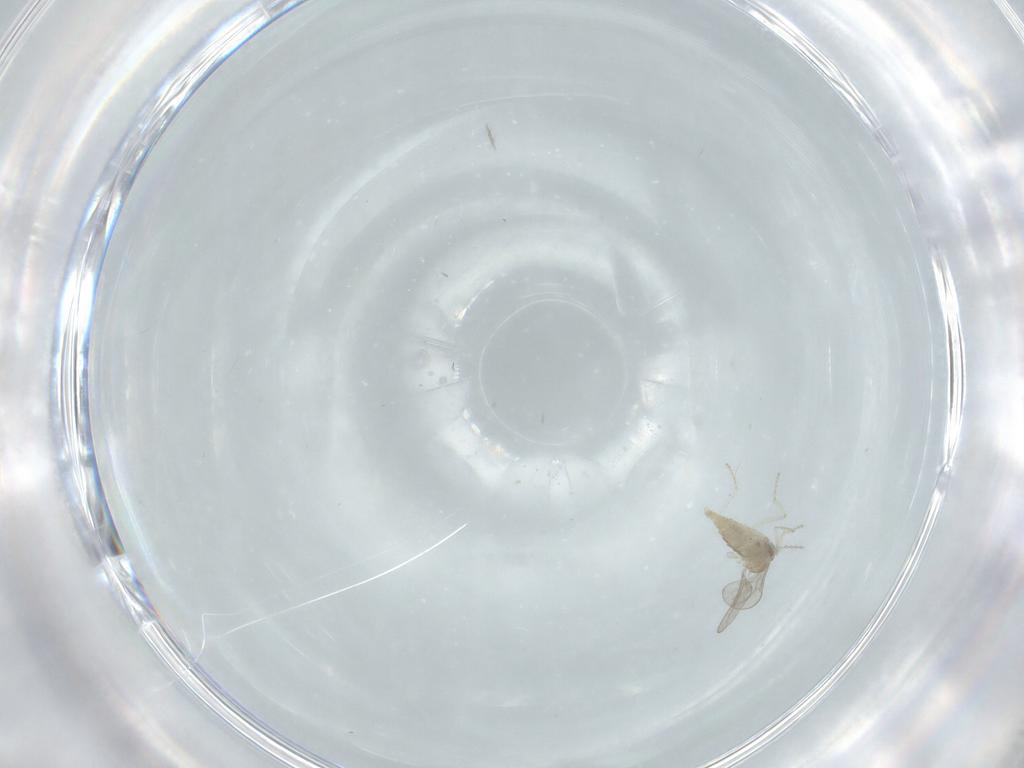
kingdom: Animalia
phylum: Arthropoda
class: Insecta
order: Diptera
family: Cecidomyiidae
